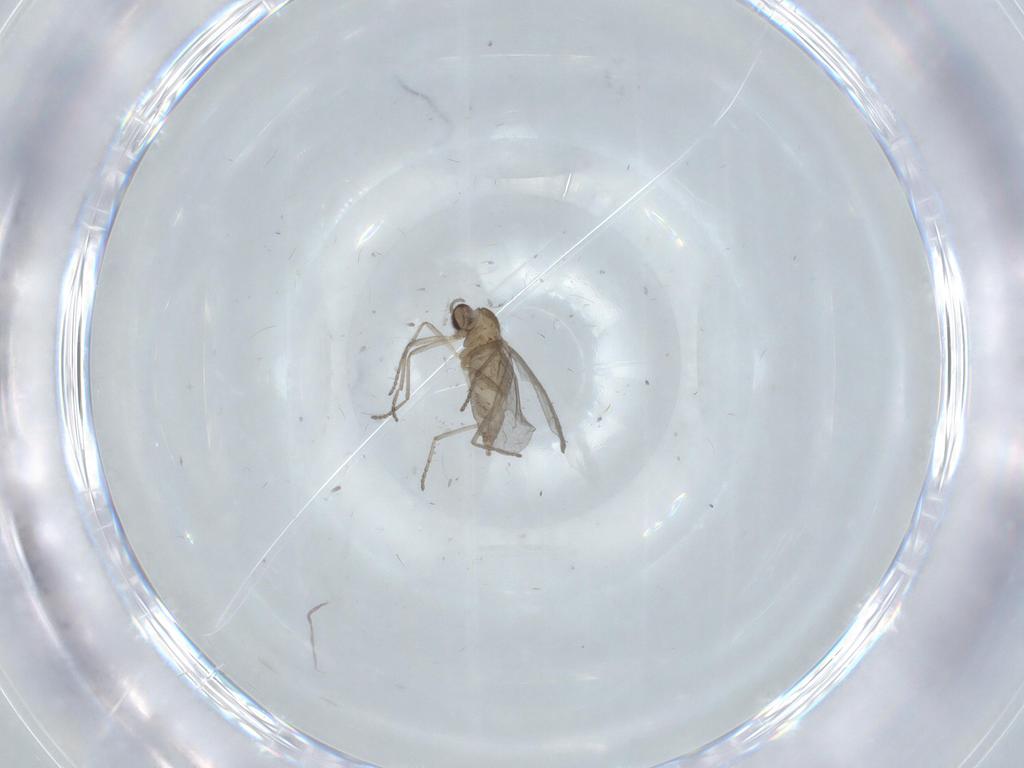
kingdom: Animalia
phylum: Arthropoda
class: Insecta
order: Diptera
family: Cecidomyiidae
